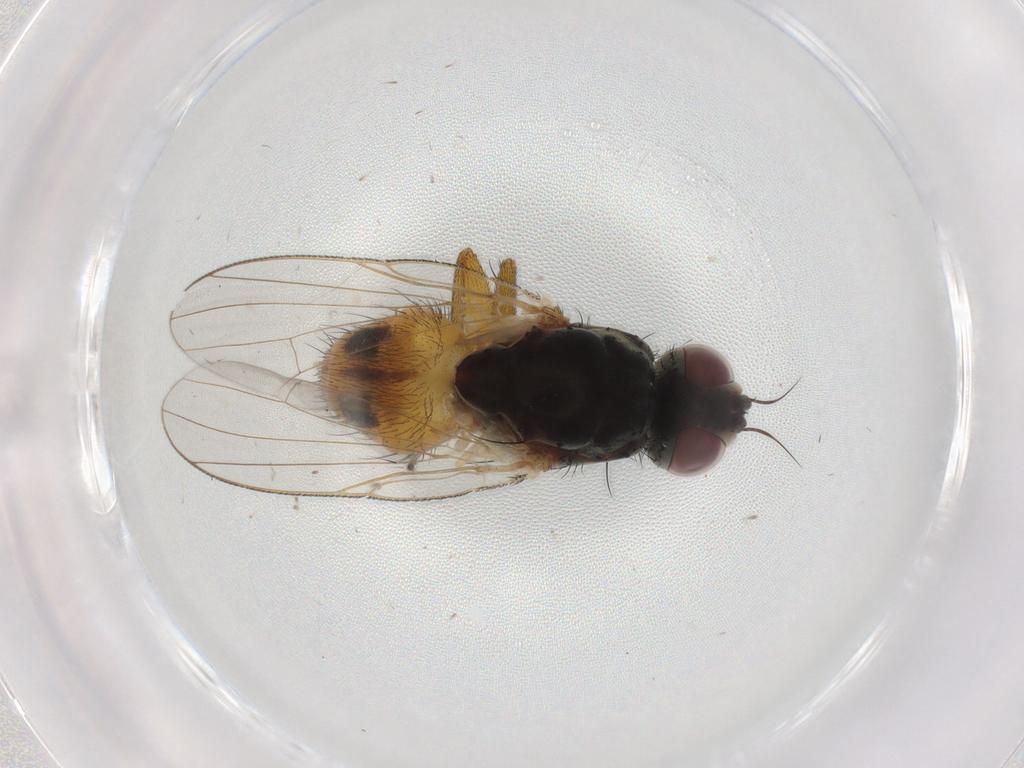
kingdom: Animalia
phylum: Arthropoda
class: Insecta
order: Diptera
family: Muscidae
